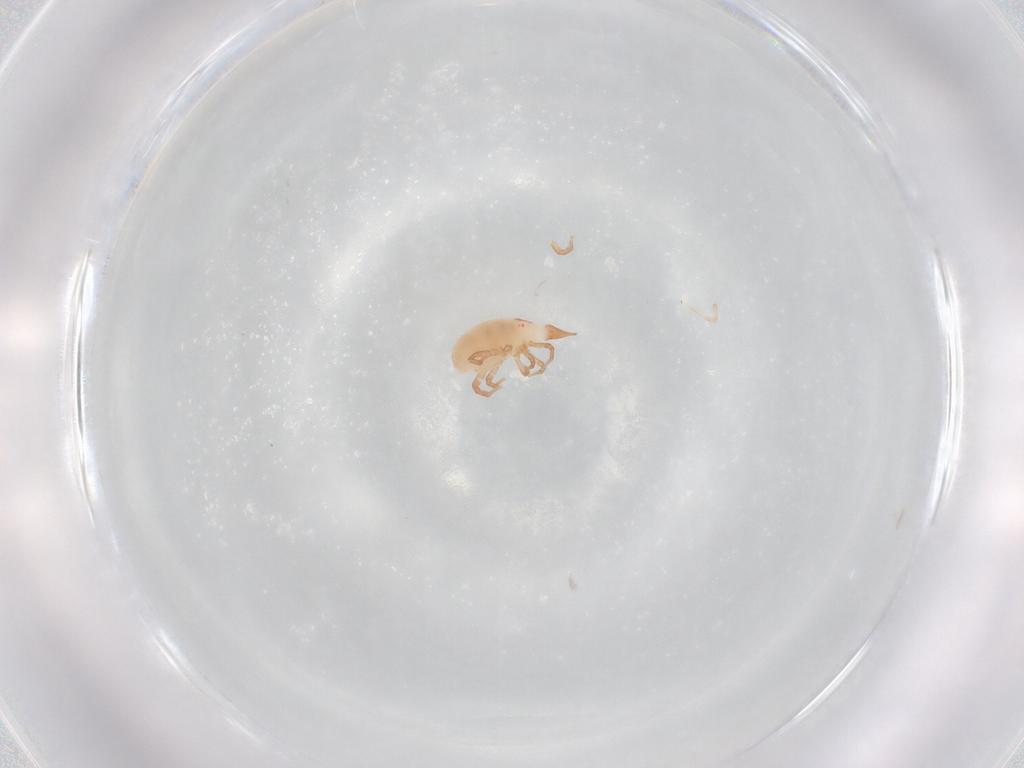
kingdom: Animalia
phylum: Arthropoda
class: Arachnida
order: Trombidiformes
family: Bdellidae
